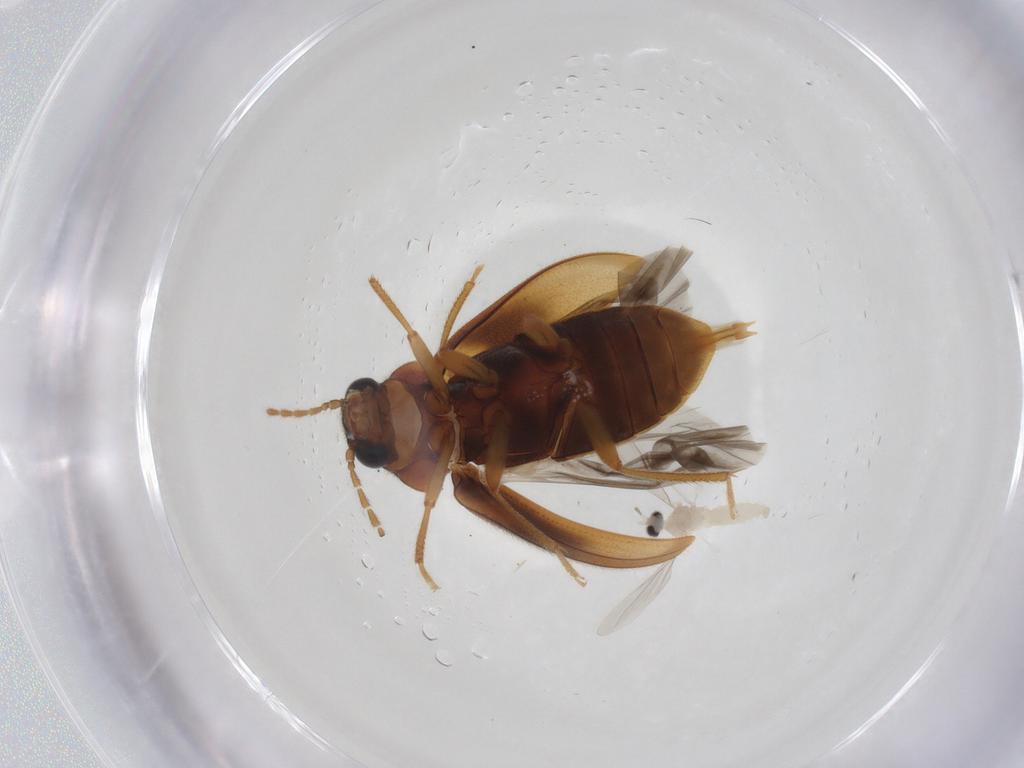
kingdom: Animalia
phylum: Arthropoda
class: Insecta
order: Coleoptera
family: Ptilodactylidae
